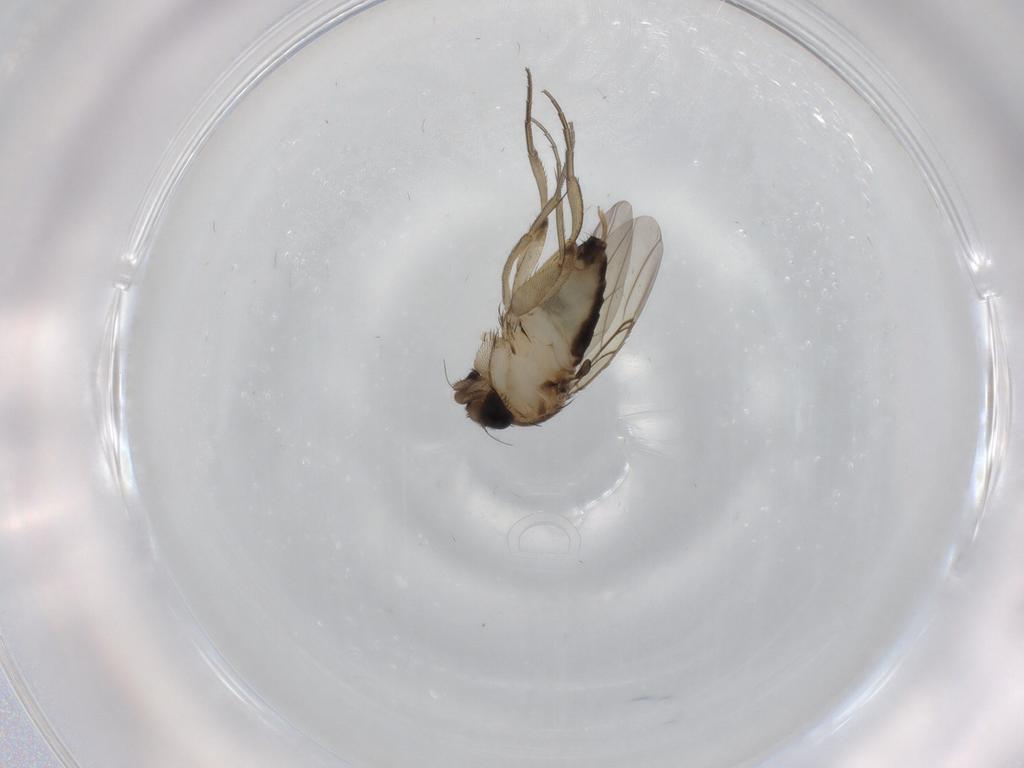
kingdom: Animalia
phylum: Arthropoda
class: Insecta
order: Diptera
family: Phoridae
